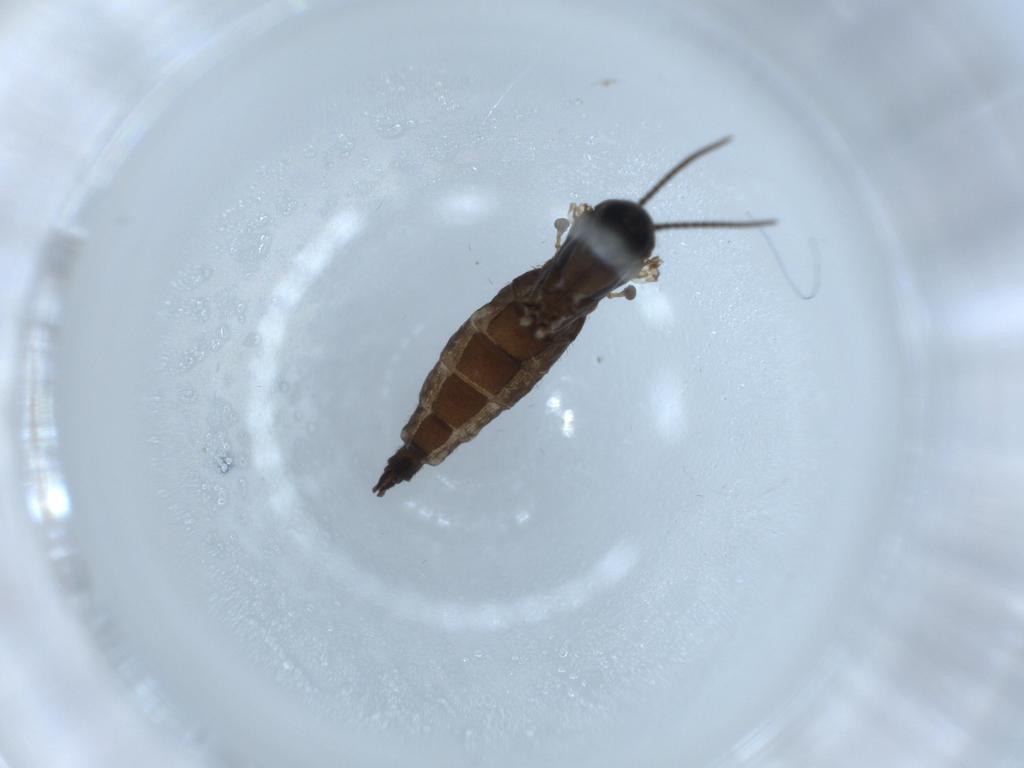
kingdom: Animalia
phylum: Arthropoda
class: Insecta
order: Diptera
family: Sciaridae
